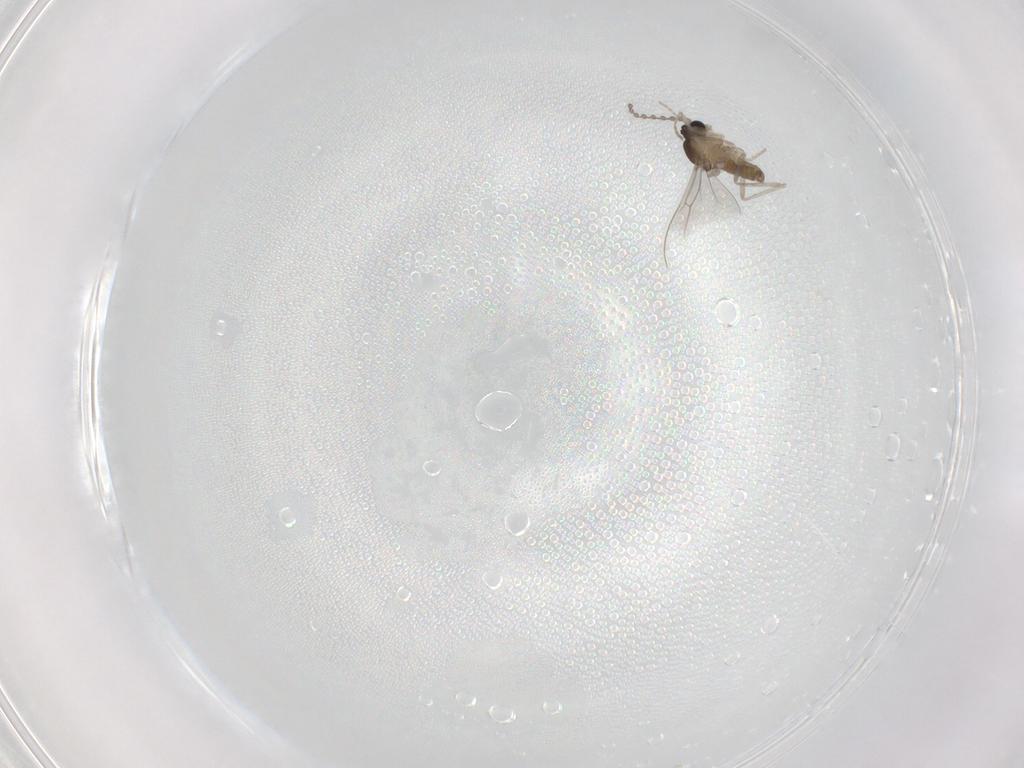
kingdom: Animalia
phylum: Arthropoda
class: Insecta
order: Diptera
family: Cecidomyiidae
